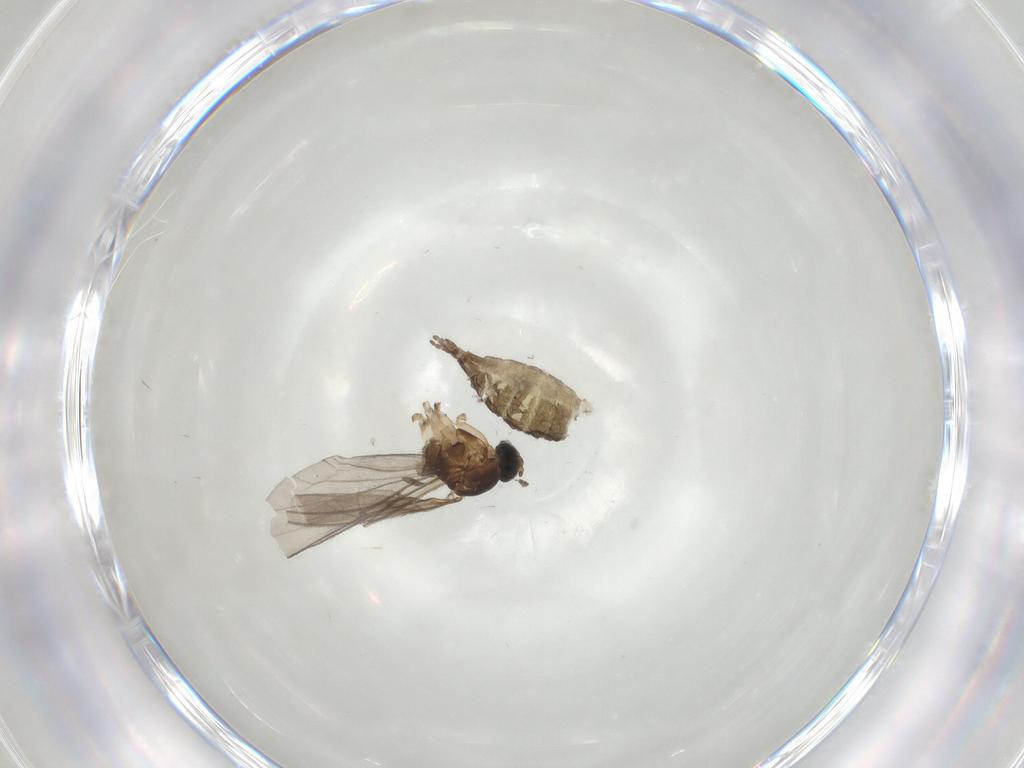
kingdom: Animalia
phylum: Arthropoda
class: Insecta
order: Diptera
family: Sciaridae
